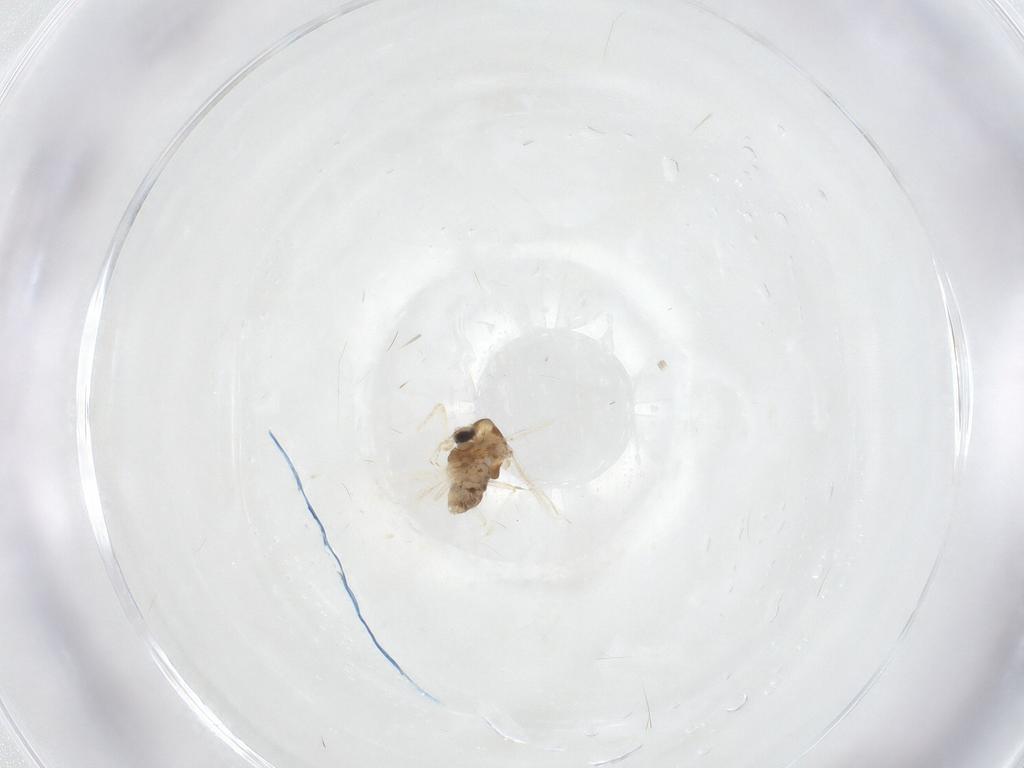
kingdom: Animalia
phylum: Arthropoda
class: Insecta
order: Diptera
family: Chironomidae
